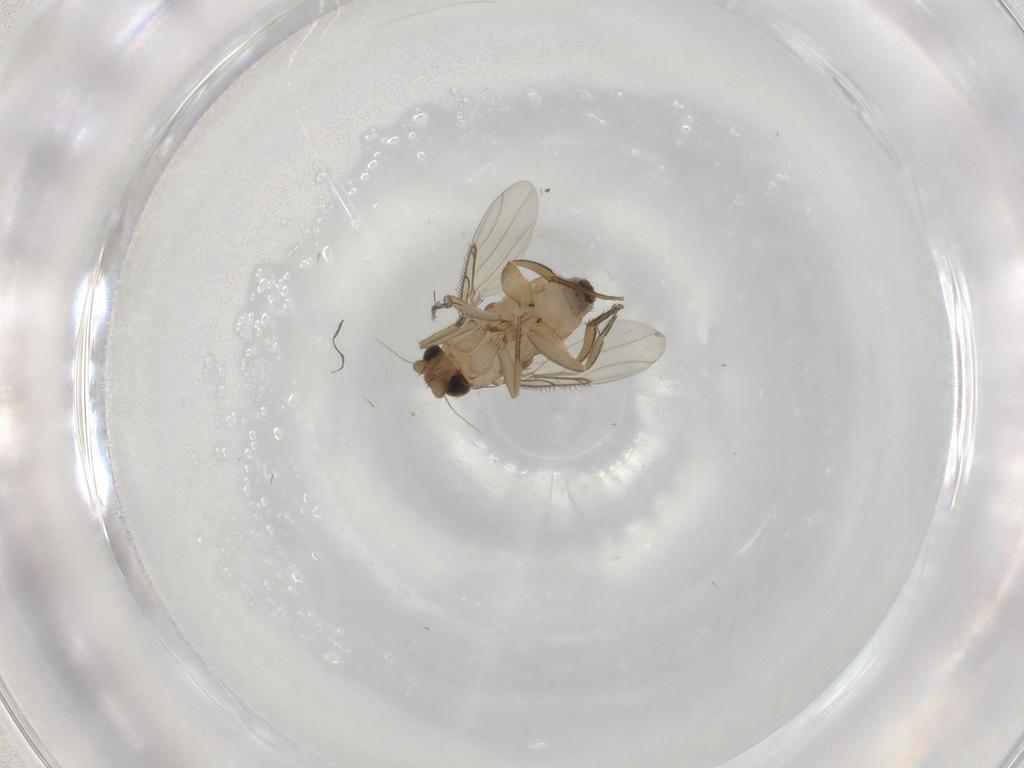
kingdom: Animalia
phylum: Arthropoda
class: Insecta
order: Diptera
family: Phoridae
